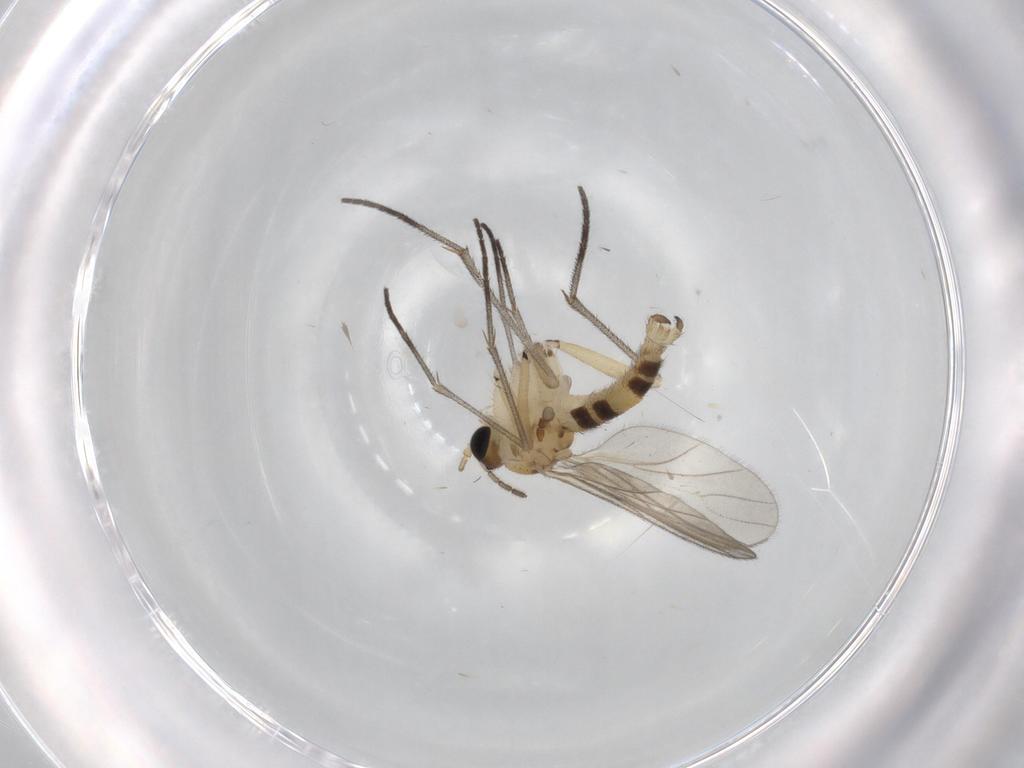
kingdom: Animalia
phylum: Arthropoda
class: Insecta
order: Diptera
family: Sciaridae
